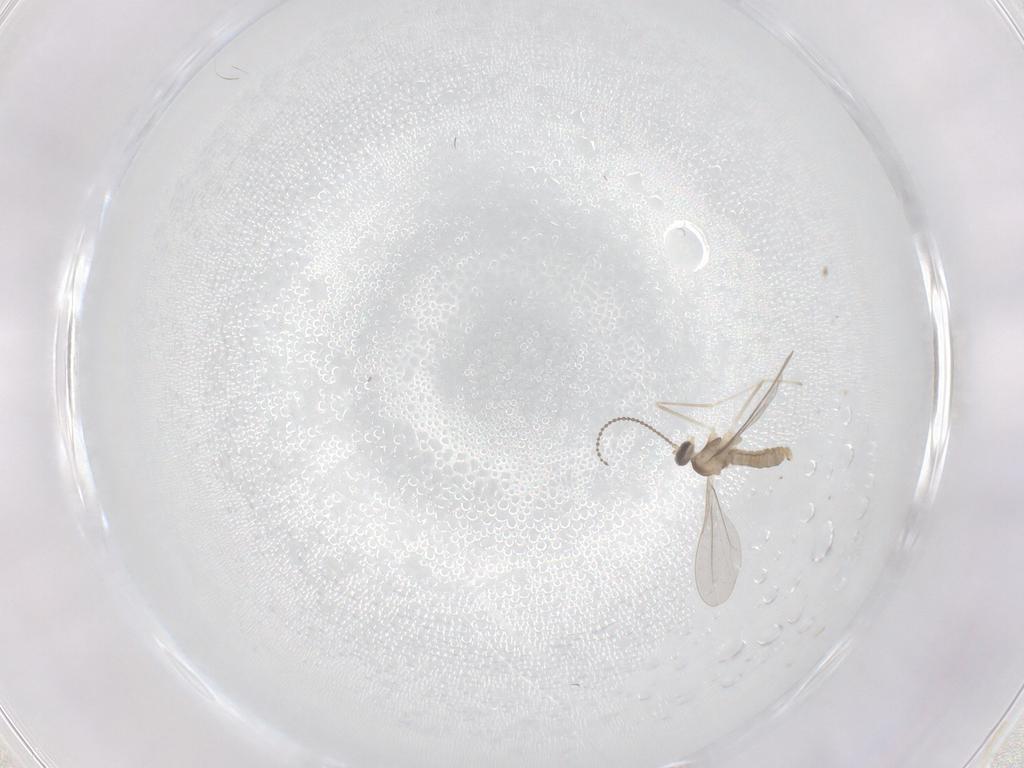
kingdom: Animalia
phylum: Arthropoda
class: Insecta
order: Diptera
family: Cecidomyiidae
